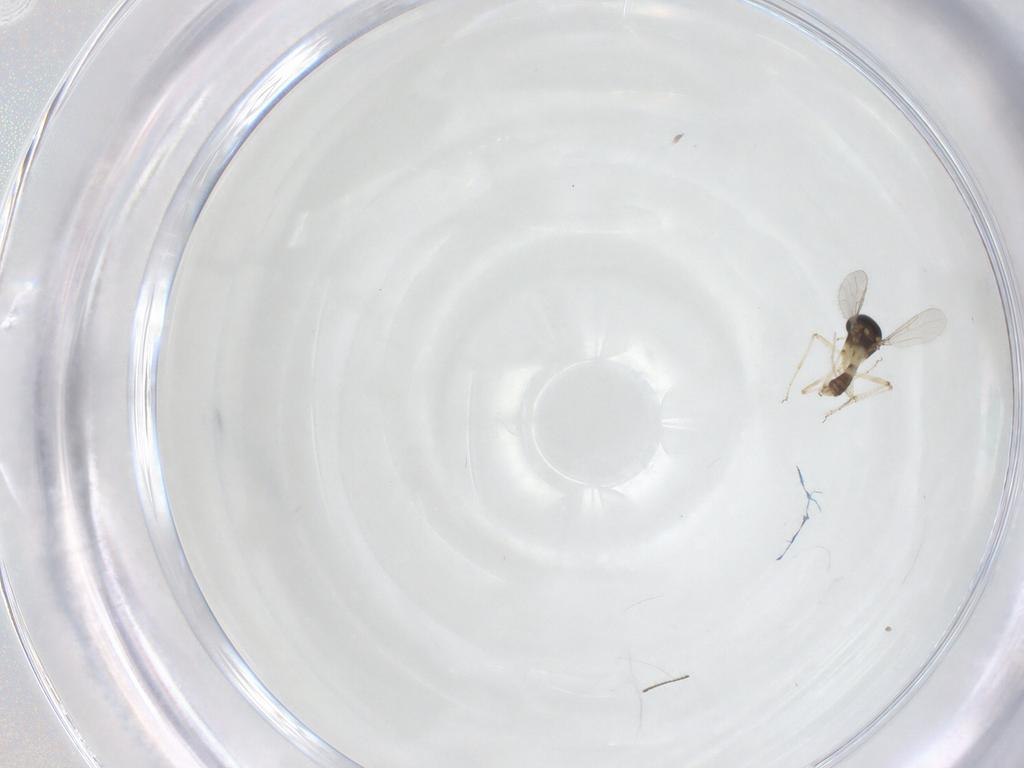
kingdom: Animalia
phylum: Arthropoda
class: Insecta
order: Diptera
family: Ceratopogonidae
